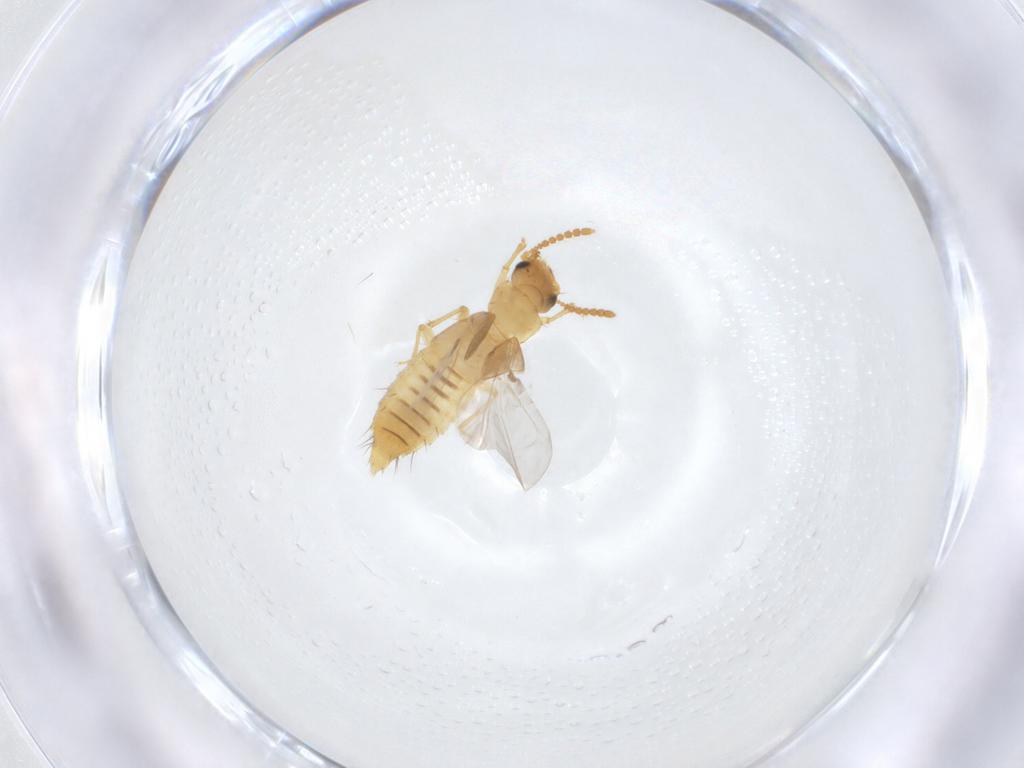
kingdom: Animalia
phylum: Arthropoda
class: Insecta
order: Coleoptera
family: Staphylinidae
